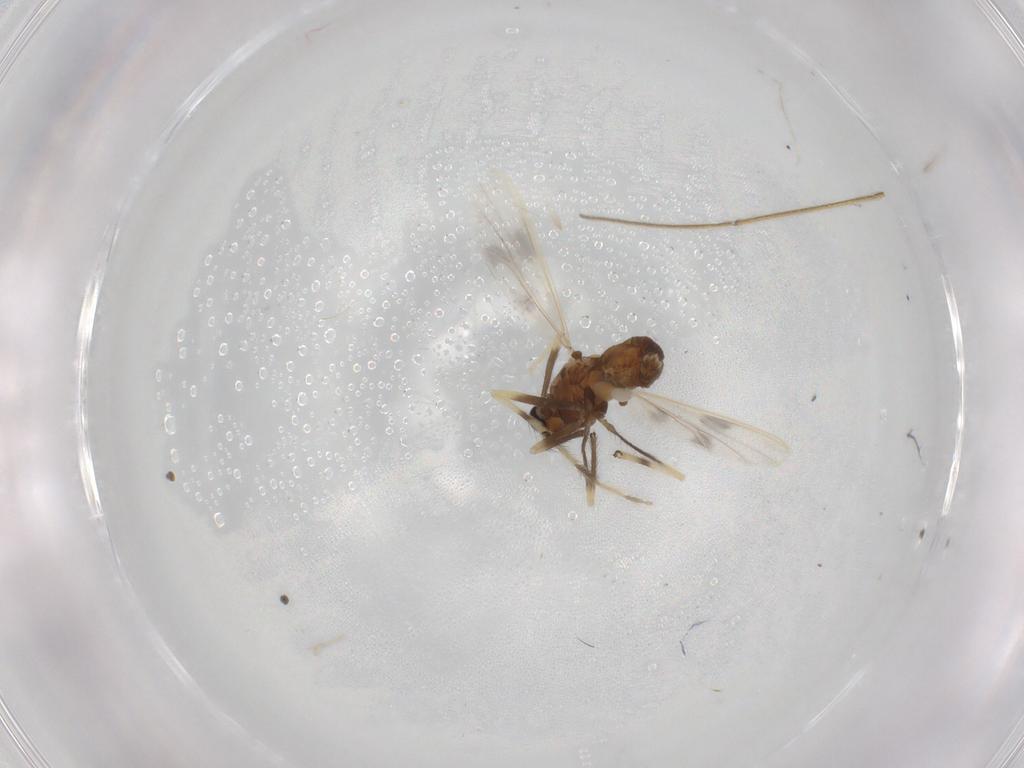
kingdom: Animalia
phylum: Arthropoda
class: Insecta
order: Diptera
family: Chironomidae
